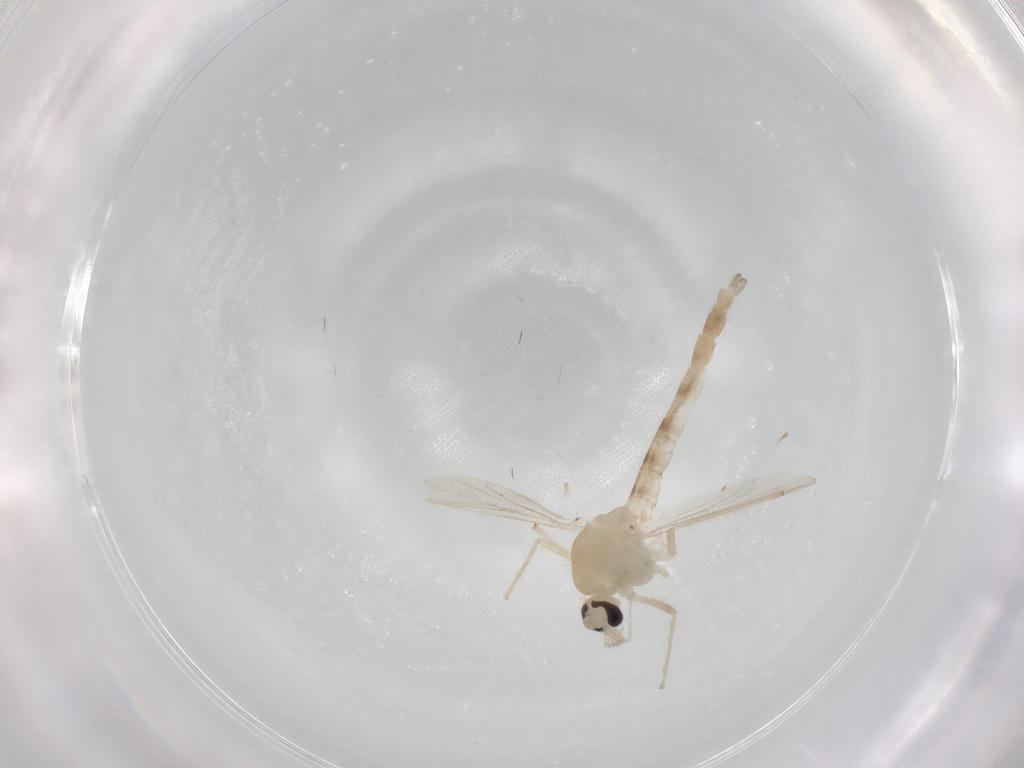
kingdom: Animalia
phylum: Arthropoda
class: Insecta
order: Diptera
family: Chironomidae
